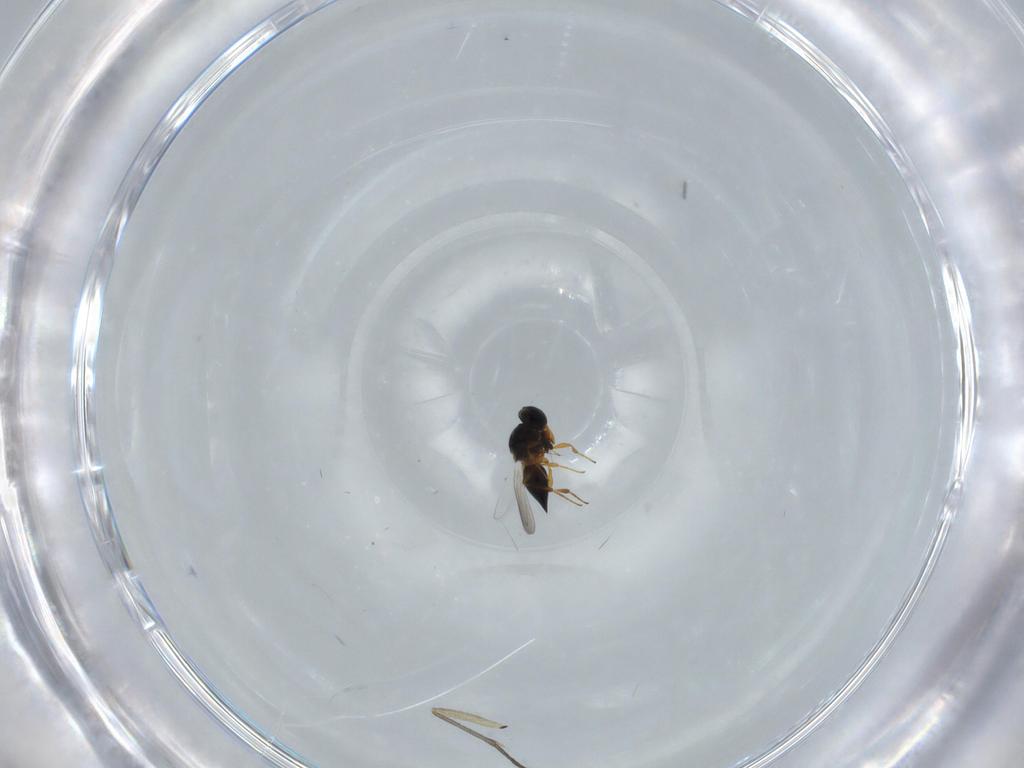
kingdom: Animalia
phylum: Arthropoda
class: Insecta
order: Hymenoptera
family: Platygastridae
